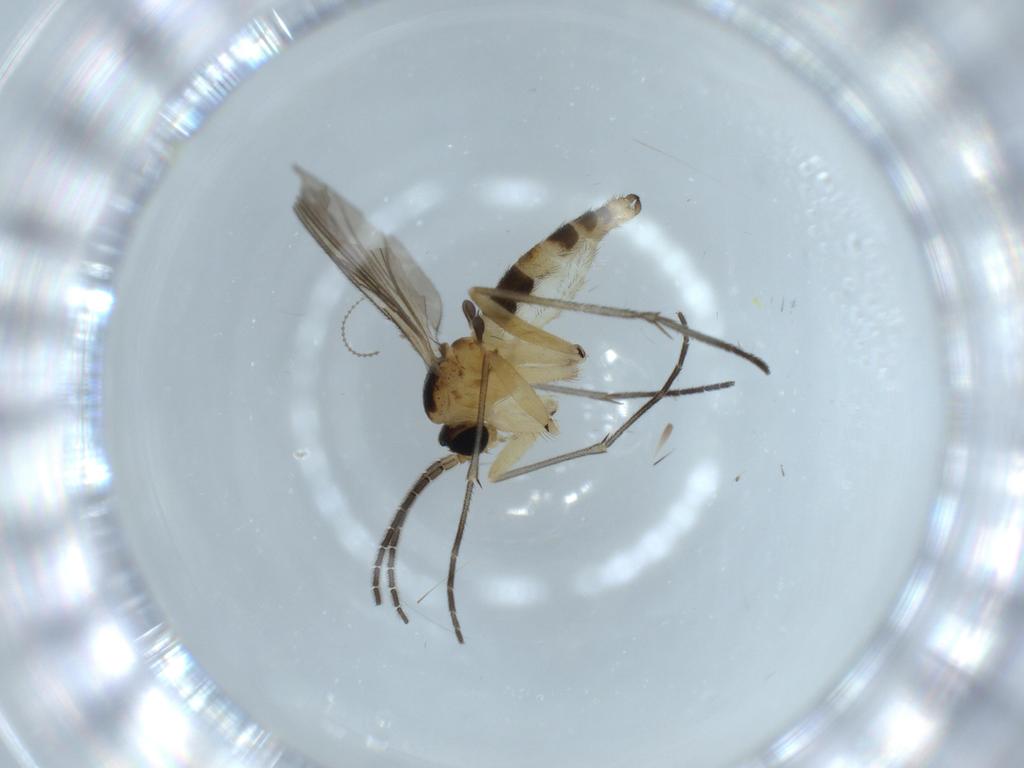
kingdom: Animalia
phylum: Arthropoda
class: Insecta
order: Diptera
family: Sciaridae
